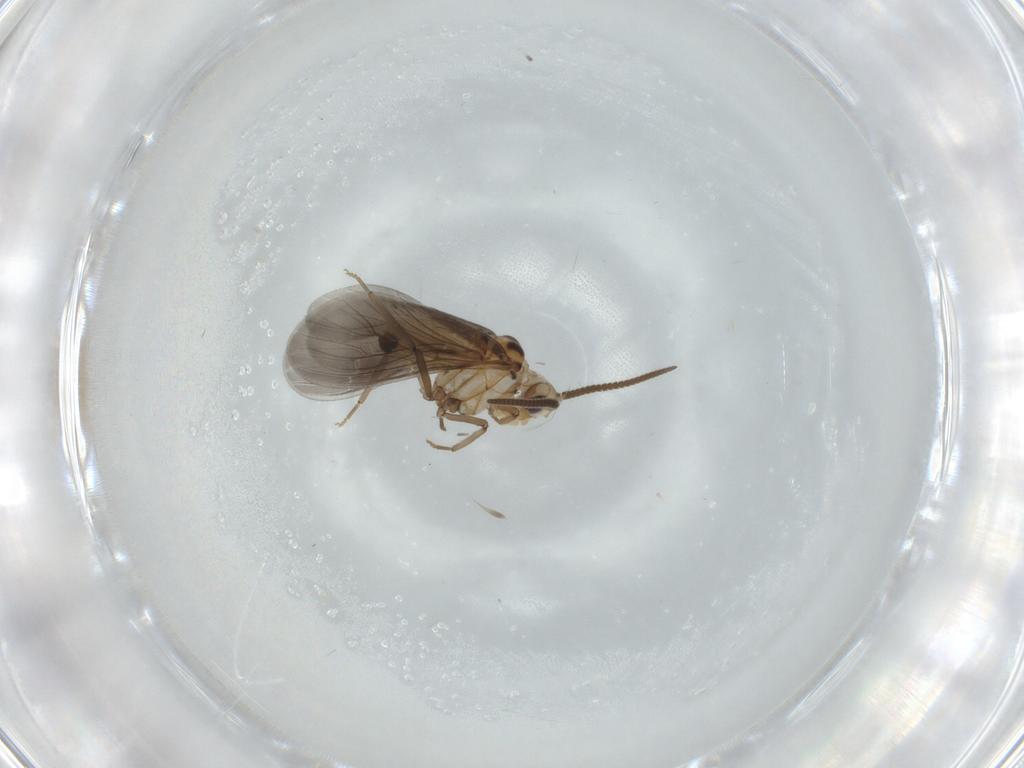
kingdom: Animalia
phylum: Arthropoda
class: Insecta
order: Neuroptera
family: Coniopterygidae
